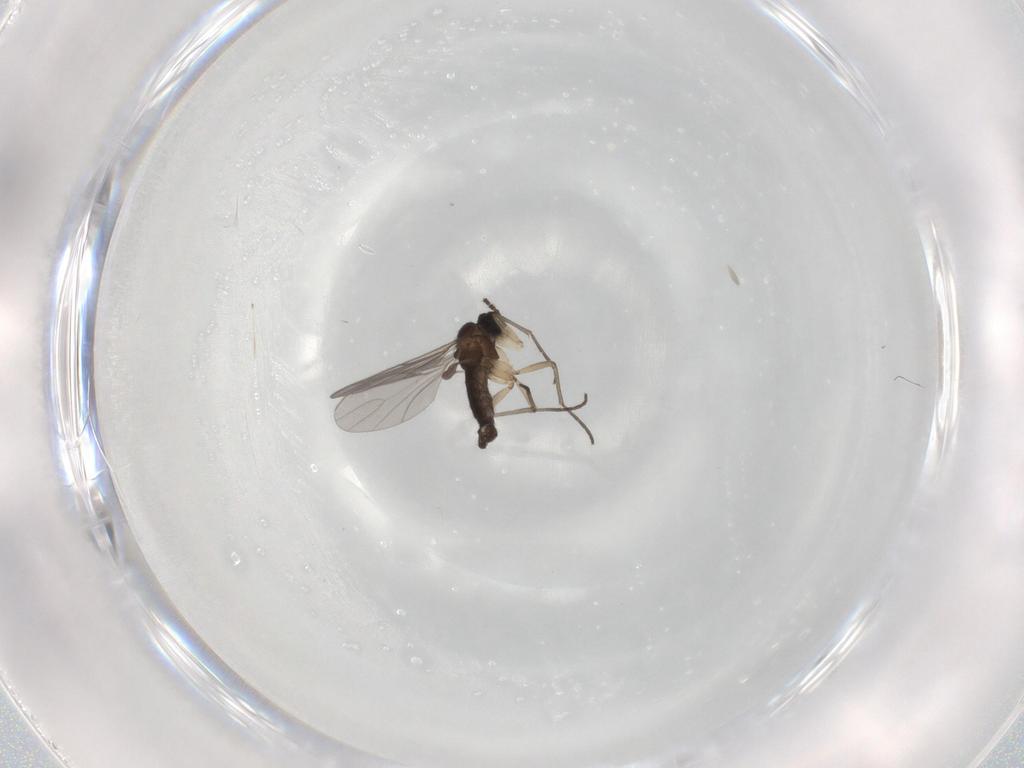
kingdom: Animalia
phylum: Arthropoda
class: Insecta
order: Diptera
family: Sciaridae
